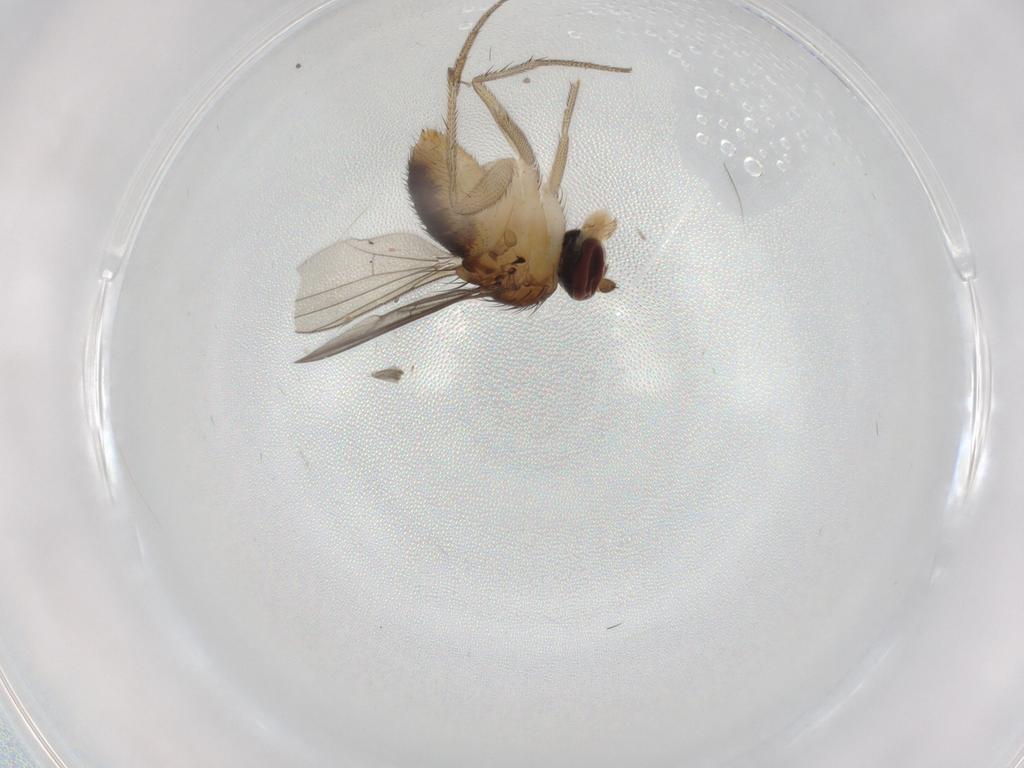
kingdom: Animalia
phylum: Arthropoda
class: Insecta
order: Diptera
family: Dolichopodidae
